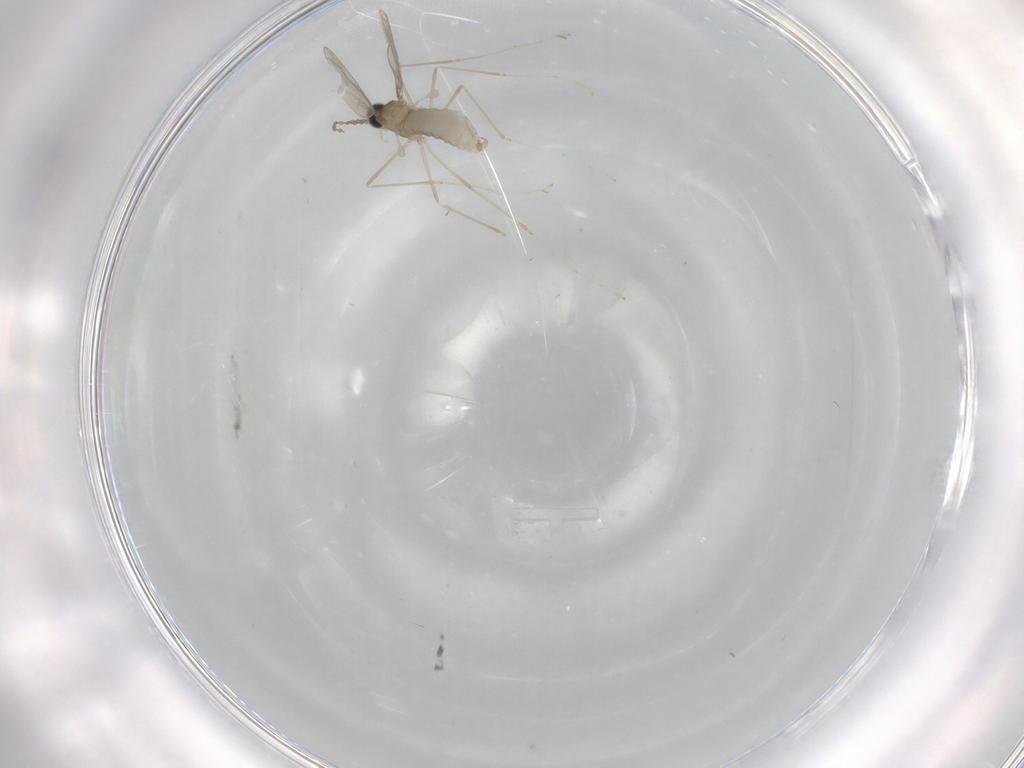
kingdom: Animalia
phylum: Arthropoda
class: Insecta
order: Diptera
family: Cecidomyiidae
